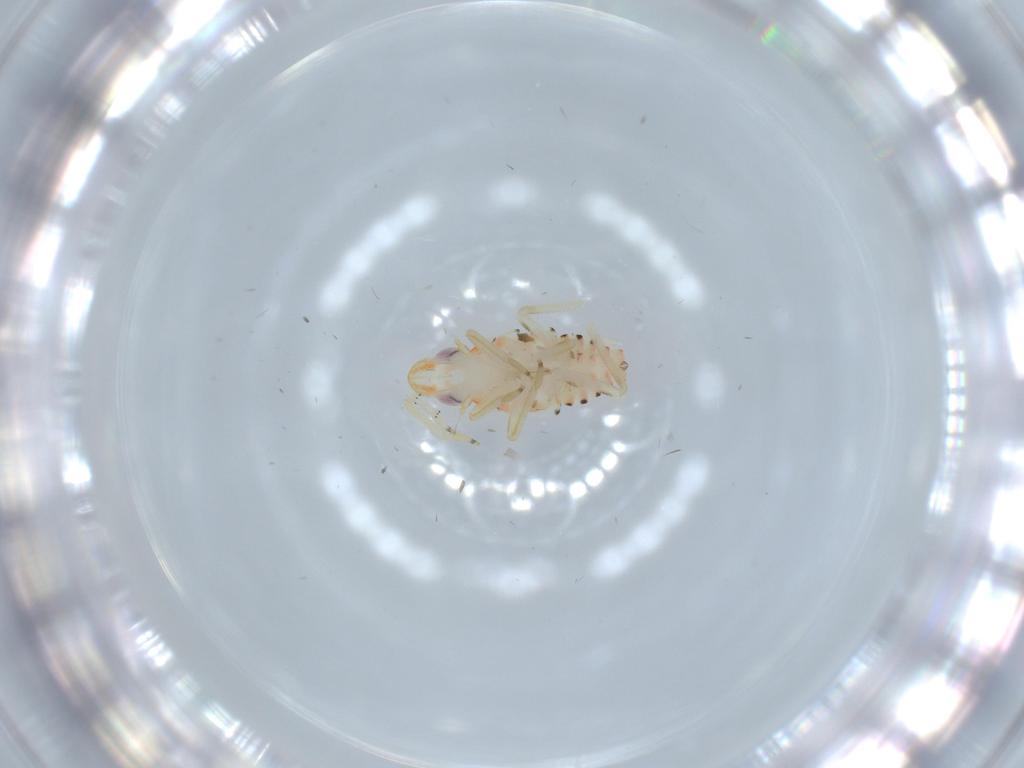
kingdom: Animalia
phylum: Arthropoda
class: Insecta
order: Hemiptera
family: Tropiduchidae
